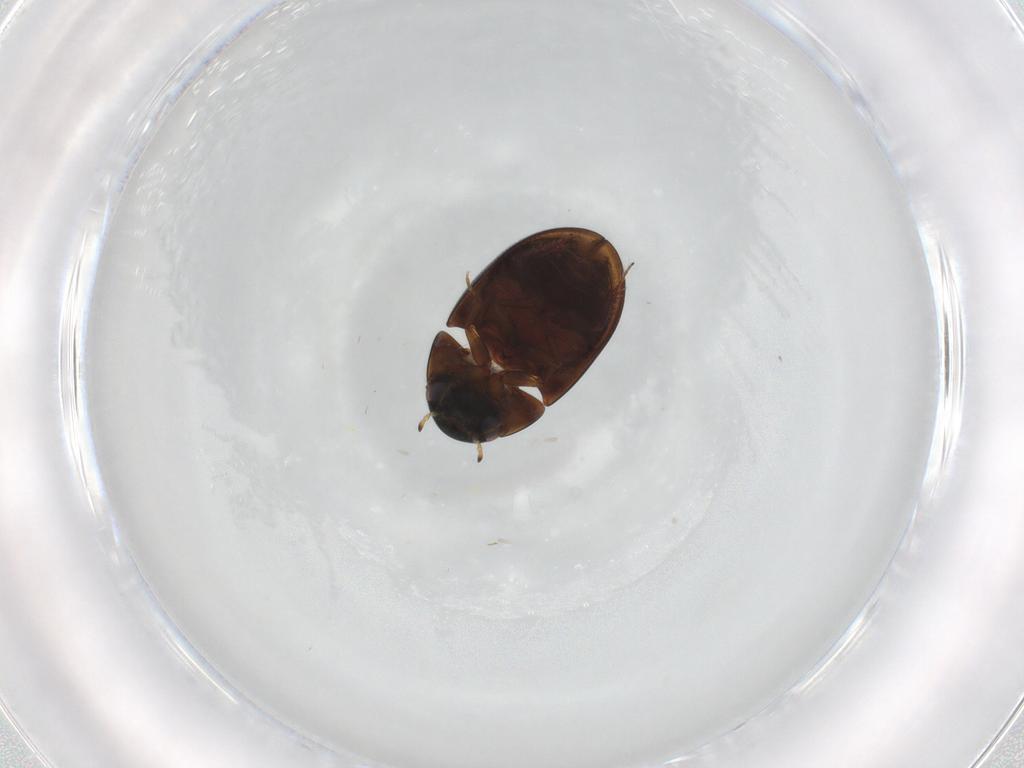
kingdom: Animalia
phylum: Arthropoda
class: Insecta
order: Coleoptera
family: Hydrophilidae
